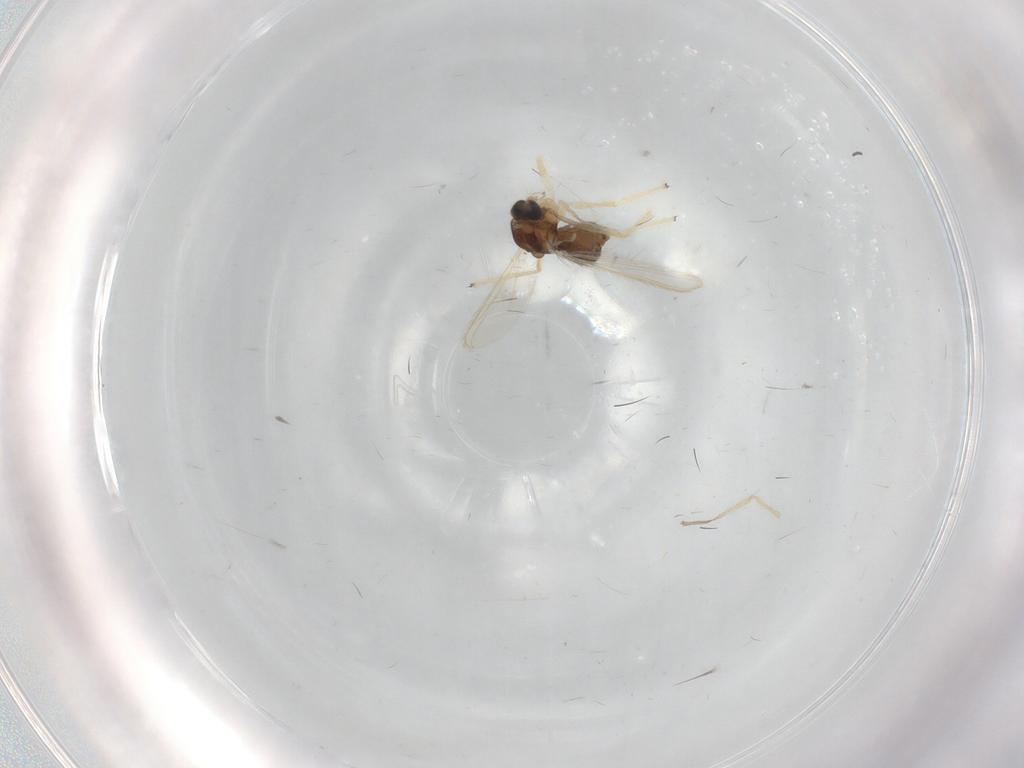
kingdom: Animalia
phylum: Arthropoda
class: Insecta
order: Diptera
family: Chironomidae
